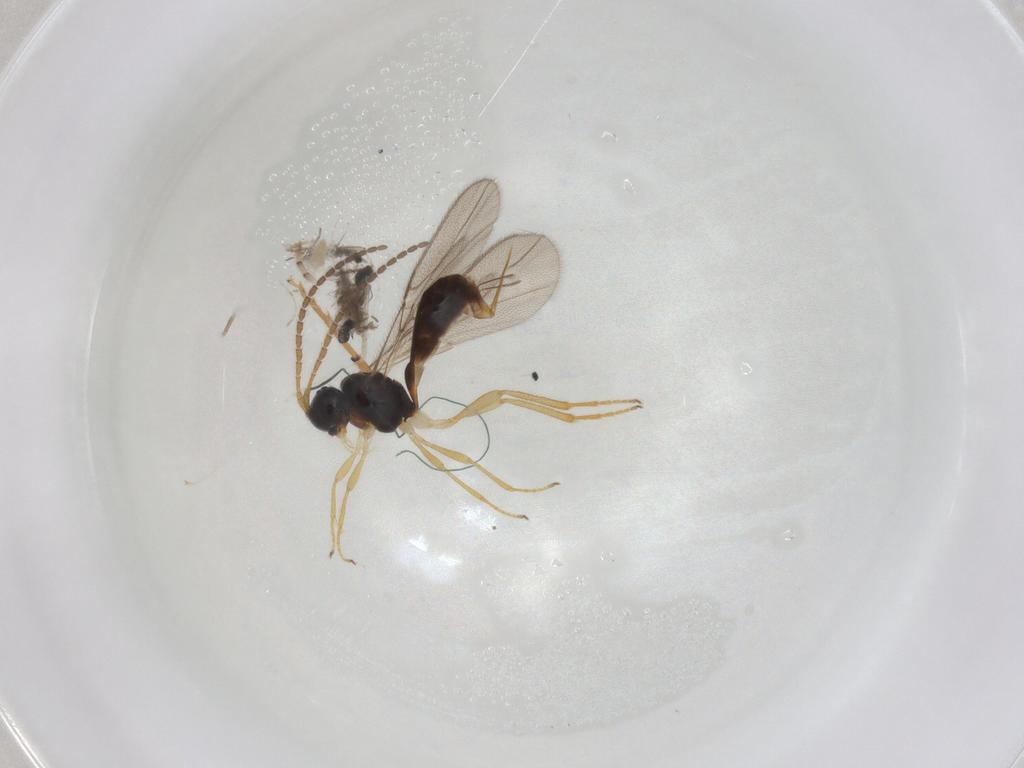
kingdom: Animalia
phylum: Arthropoda
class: Insecta
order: Hymenoptera
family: Braconidae
